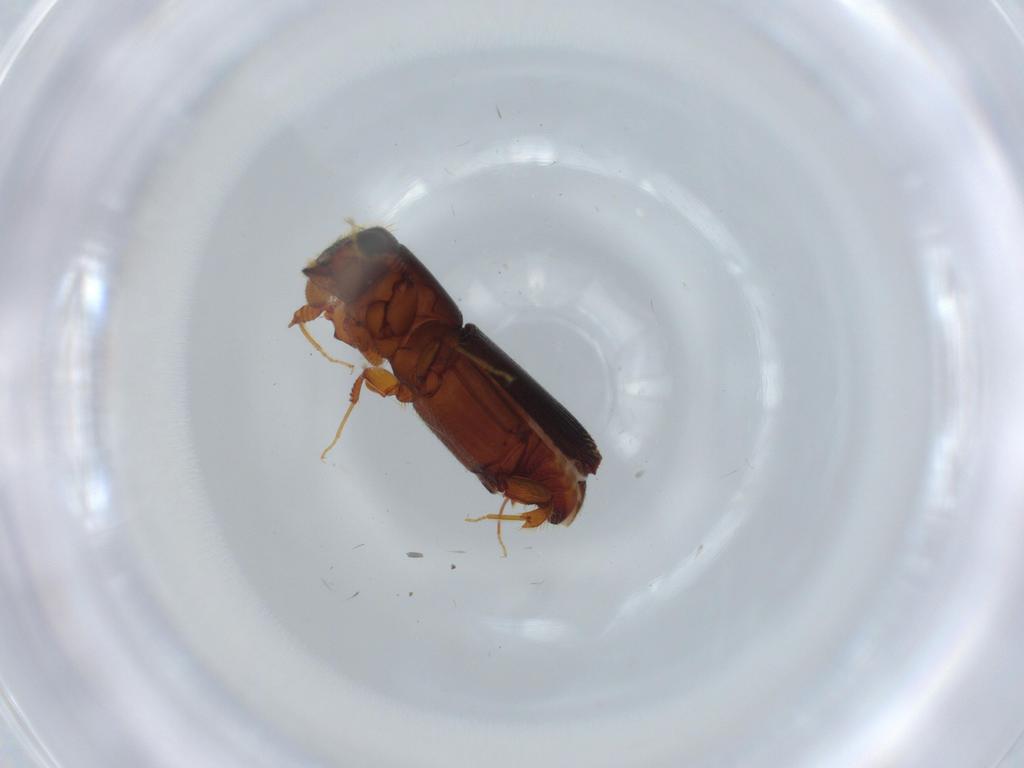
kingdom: Animalia
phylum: Arthropoda
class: Insecta
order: Coleoptera
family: Curculionidae
